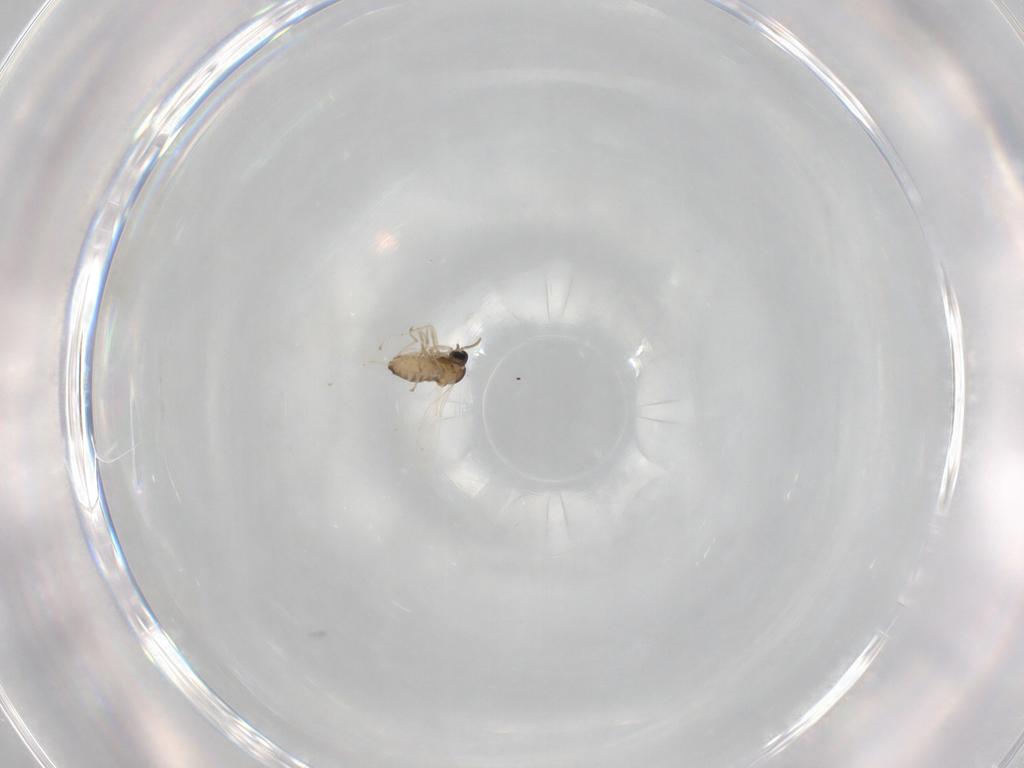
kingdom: Animalia
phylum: Arthropoda
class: Insecta
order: Diptera
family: Cecidomyiidae
